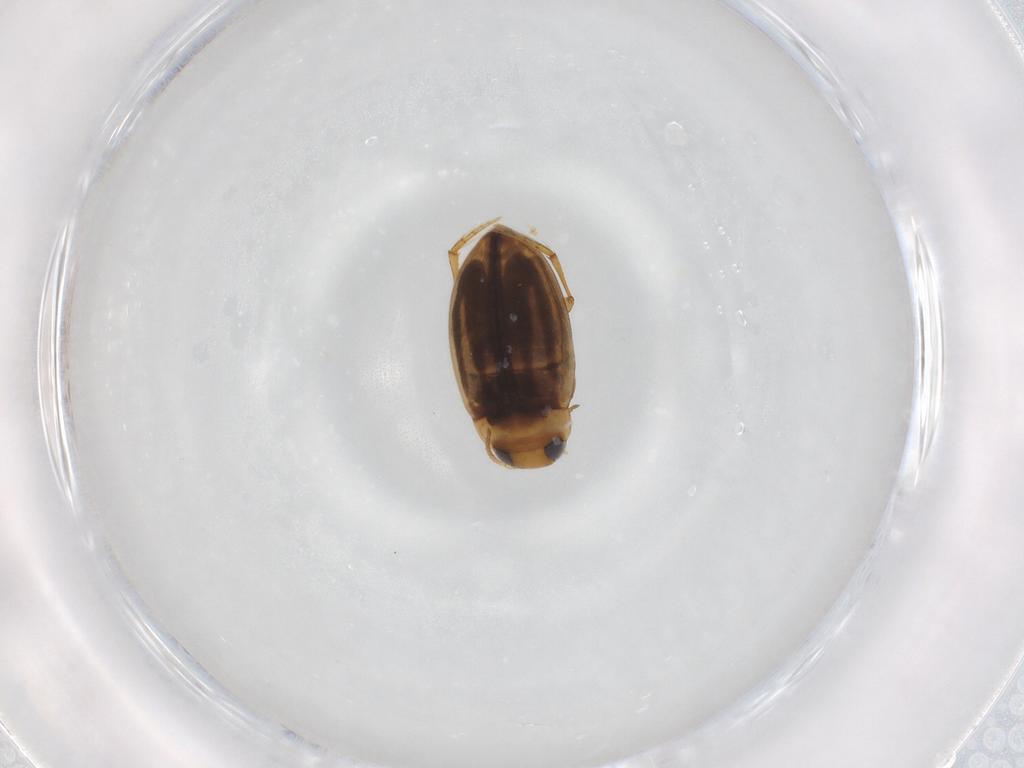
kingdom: Animalia
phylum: Arthropoda
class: Insecta
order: Coleoptera
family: Dytiscidae
